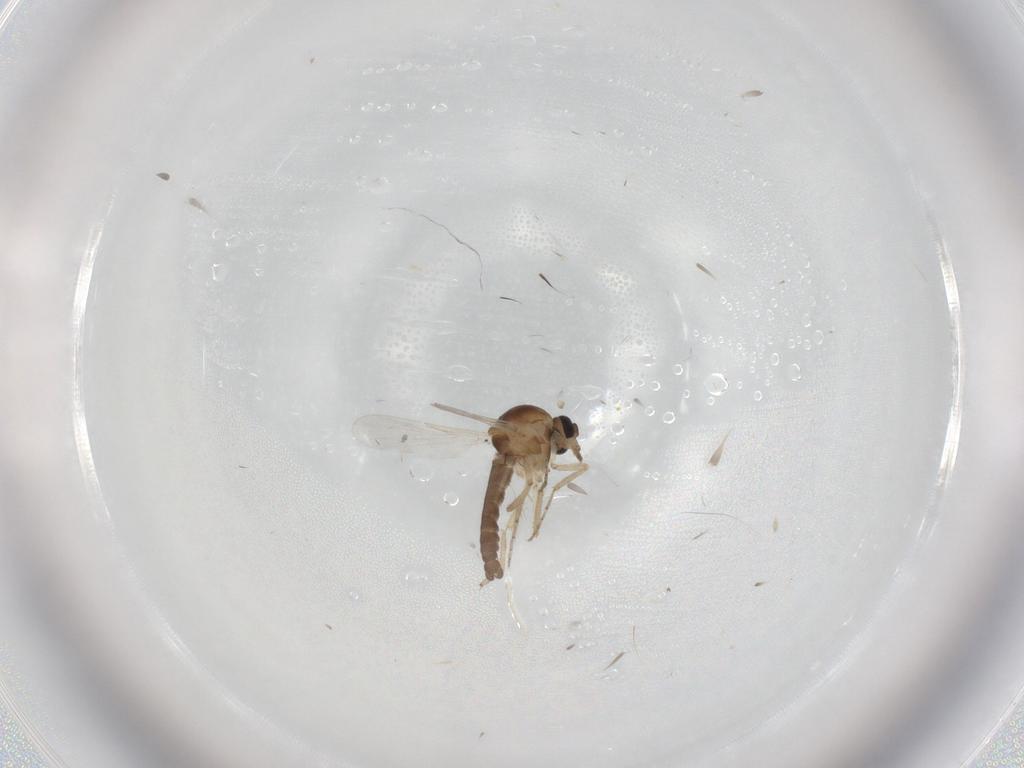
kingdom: Animalia
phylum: Arthropoda
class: Insecta
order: Diptera
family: Ceratopogonidae
